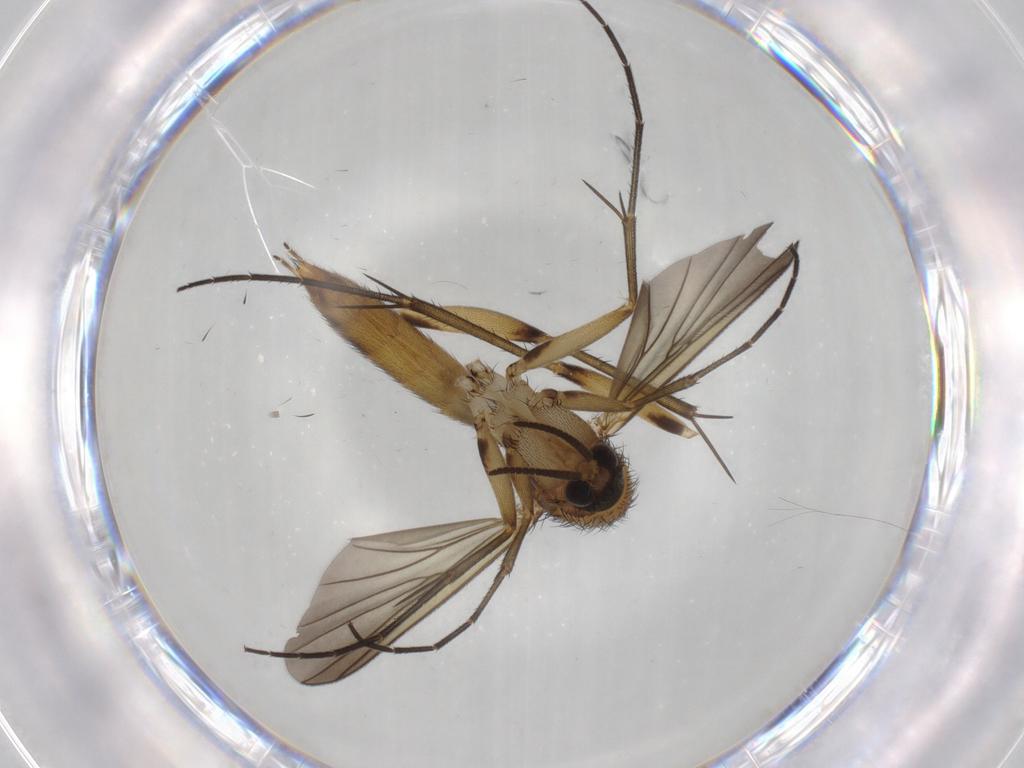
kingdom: Animalia
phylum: Arthropoda
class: Insecta
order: Diptera
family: Mycetophilidae
